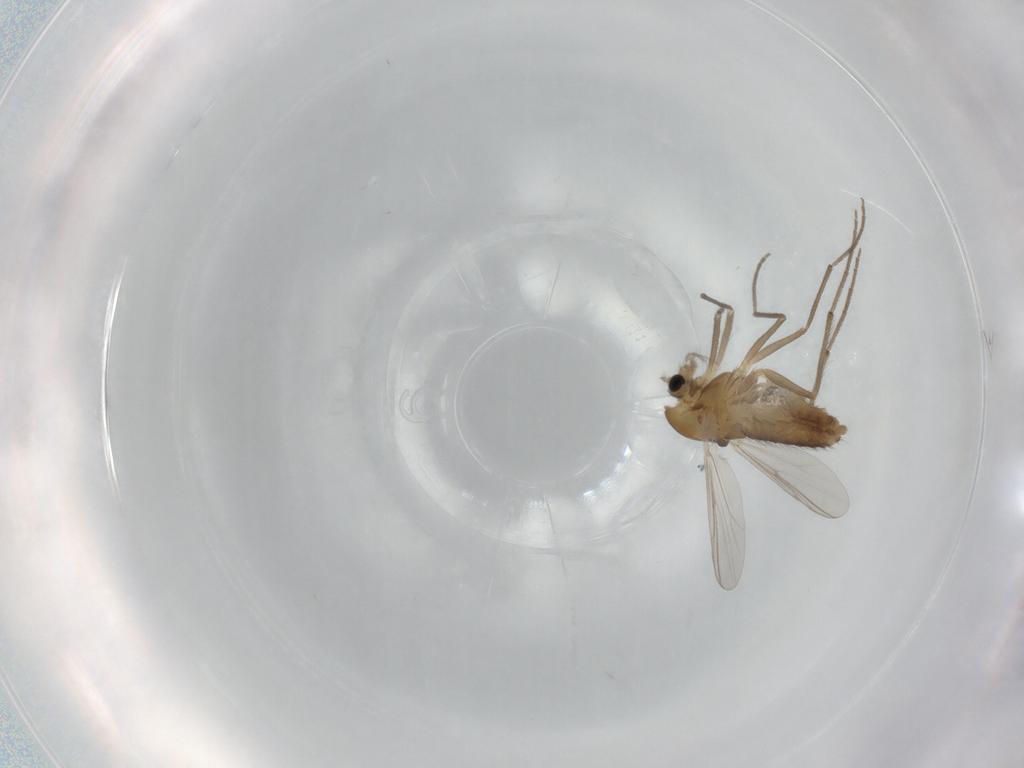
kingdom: Animalia
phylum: Arthropoda
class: Insecta
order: Diptera
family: Chironomidae
